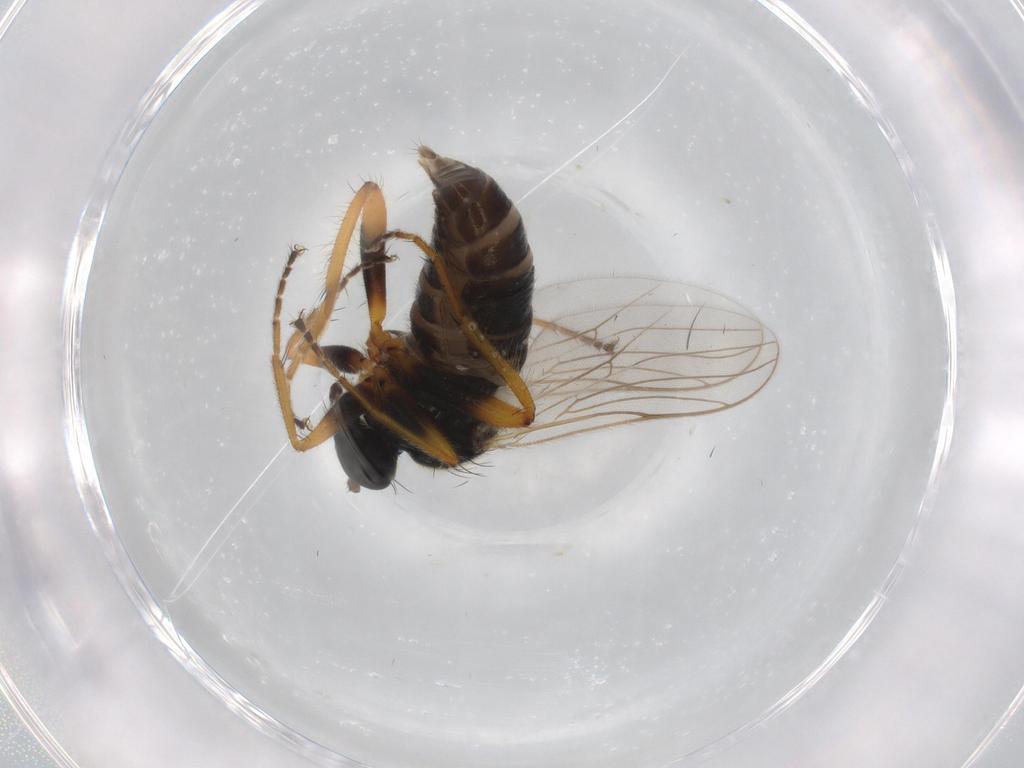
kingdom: Animalia
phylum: Arthropoda
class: Insecta
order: Diptera
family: Hybotidae
